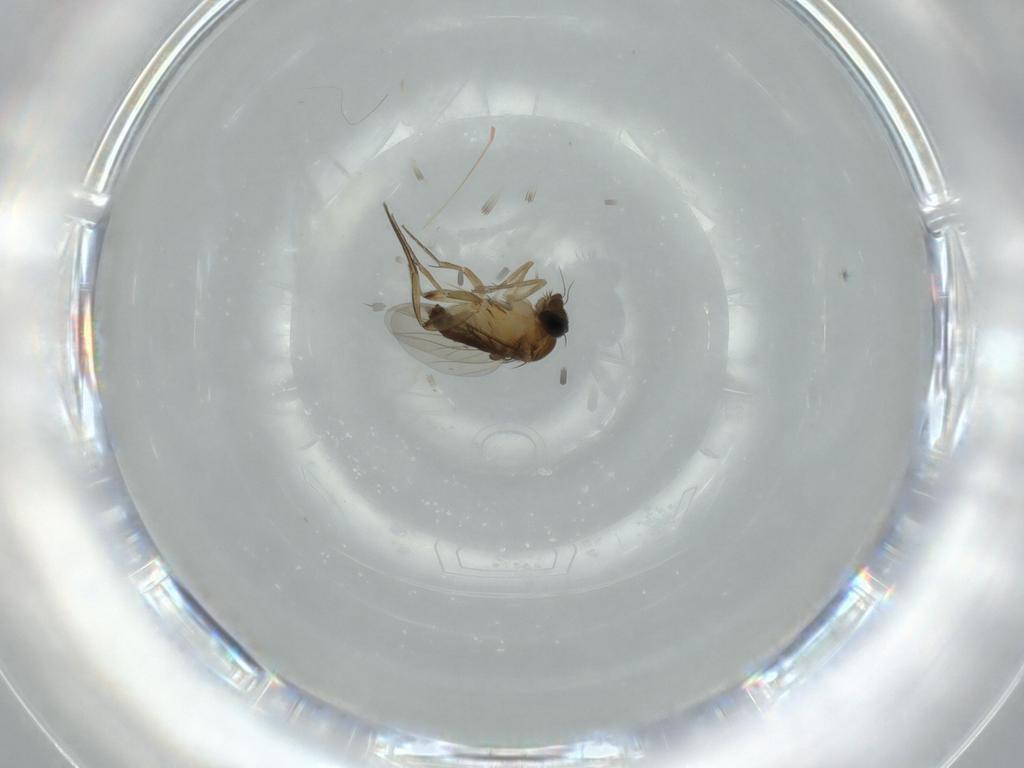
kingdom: Animalia
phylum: Arthropoda
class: Insecta
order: Diptera
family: Phoridae
